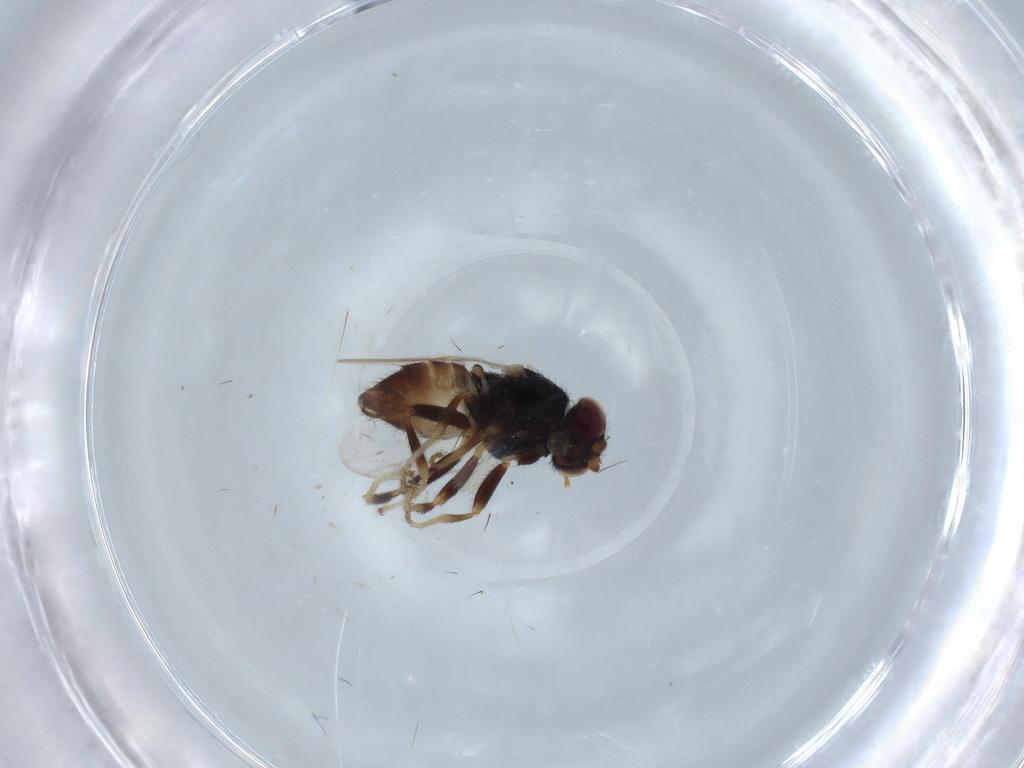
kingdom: Animalia
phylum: Arthropoda
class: Insecta
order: Diptera
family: Chloropidae
